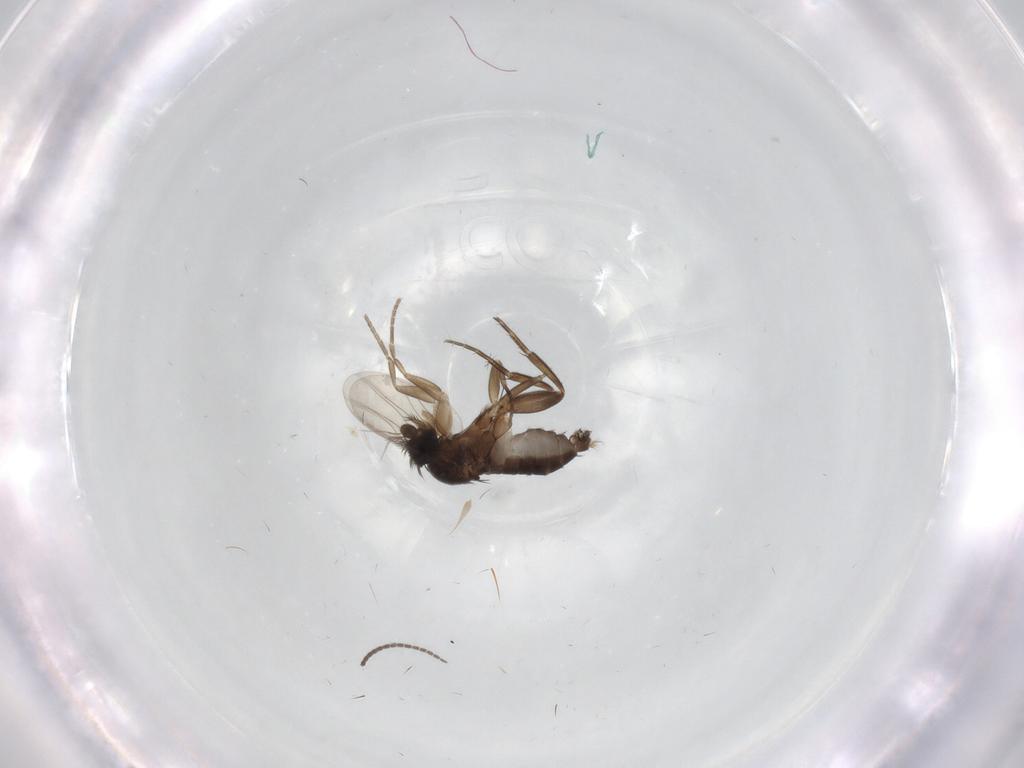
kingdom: Animalia
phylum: Arthropoda
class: Insecta
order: Diptera
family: Phoridae
